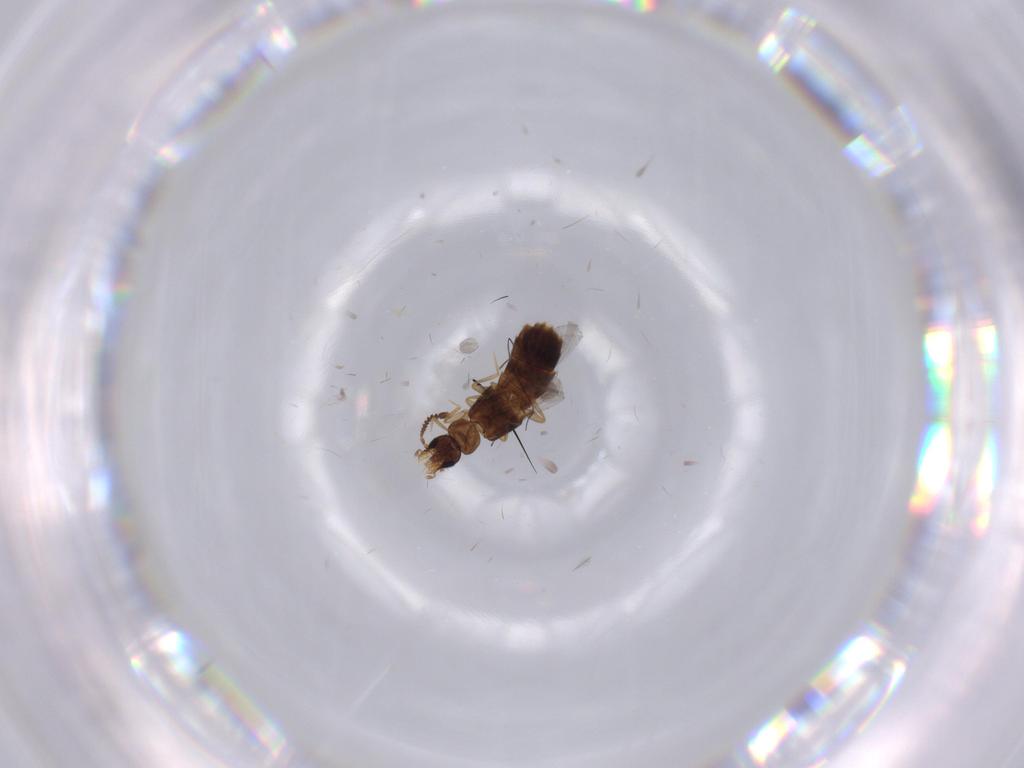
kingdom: Animalia
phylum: Arthropoda
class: Insecta
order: Coleoptera
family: Staphylinidae
